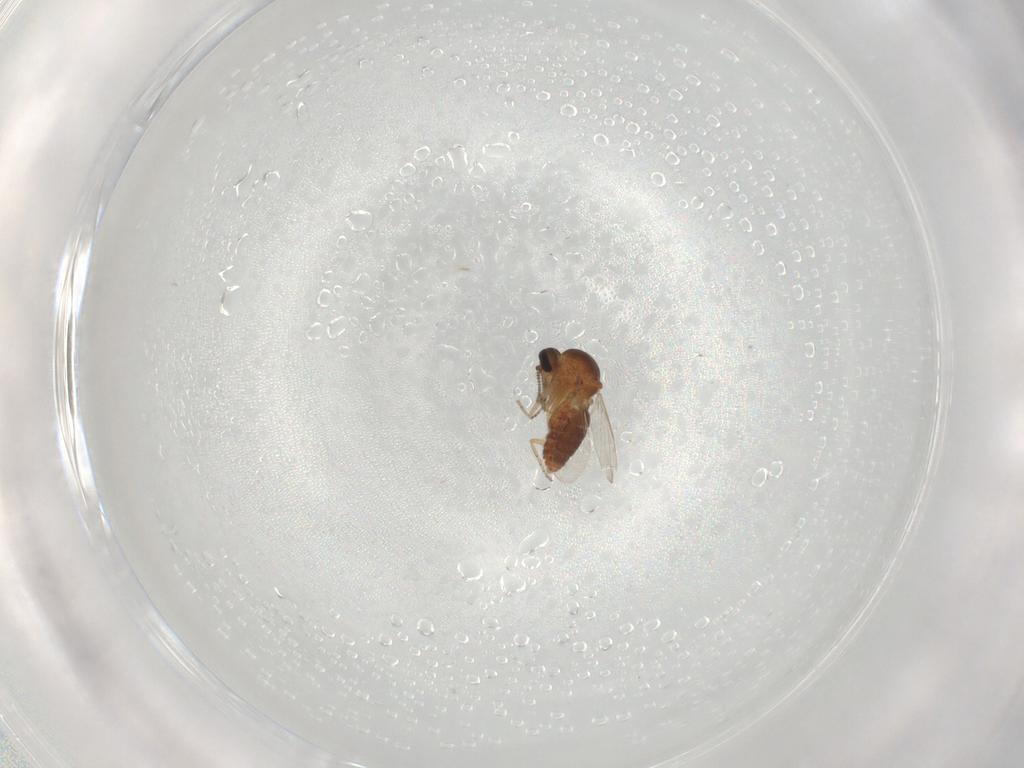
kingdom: Animalia
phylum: Arthropoda
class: Insecta
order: Diptera
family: Ceratopogonidae
